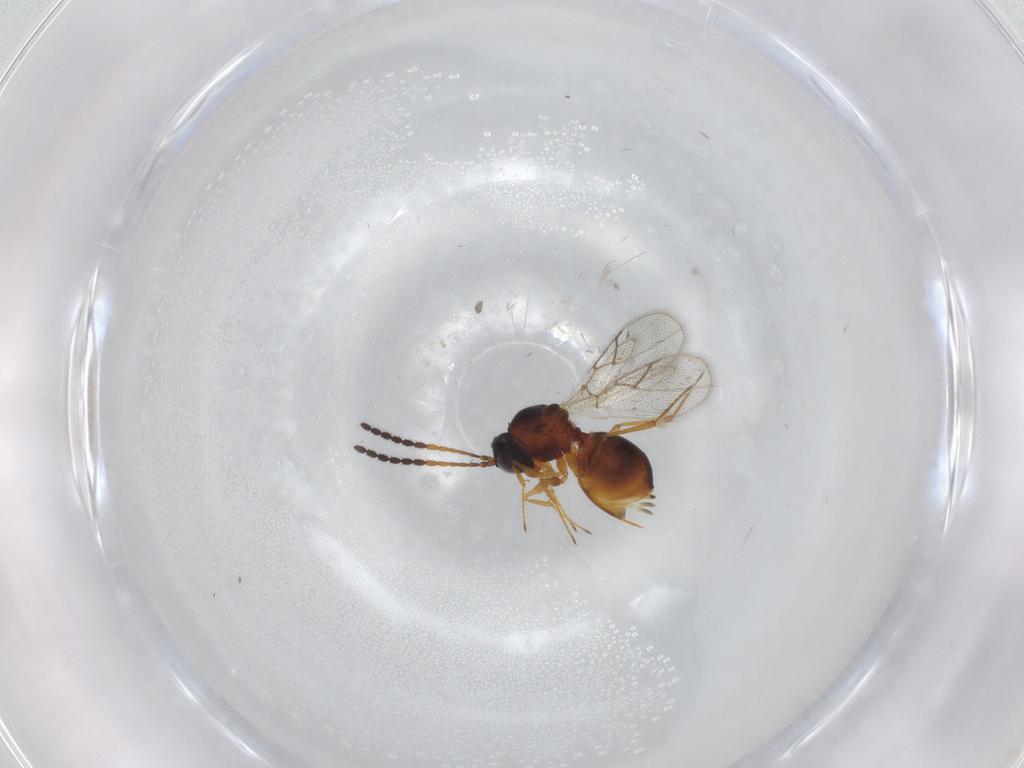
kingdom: Animalia
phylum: Arthropoda
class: Insecta
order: Hymenoptera
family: Figitidae
